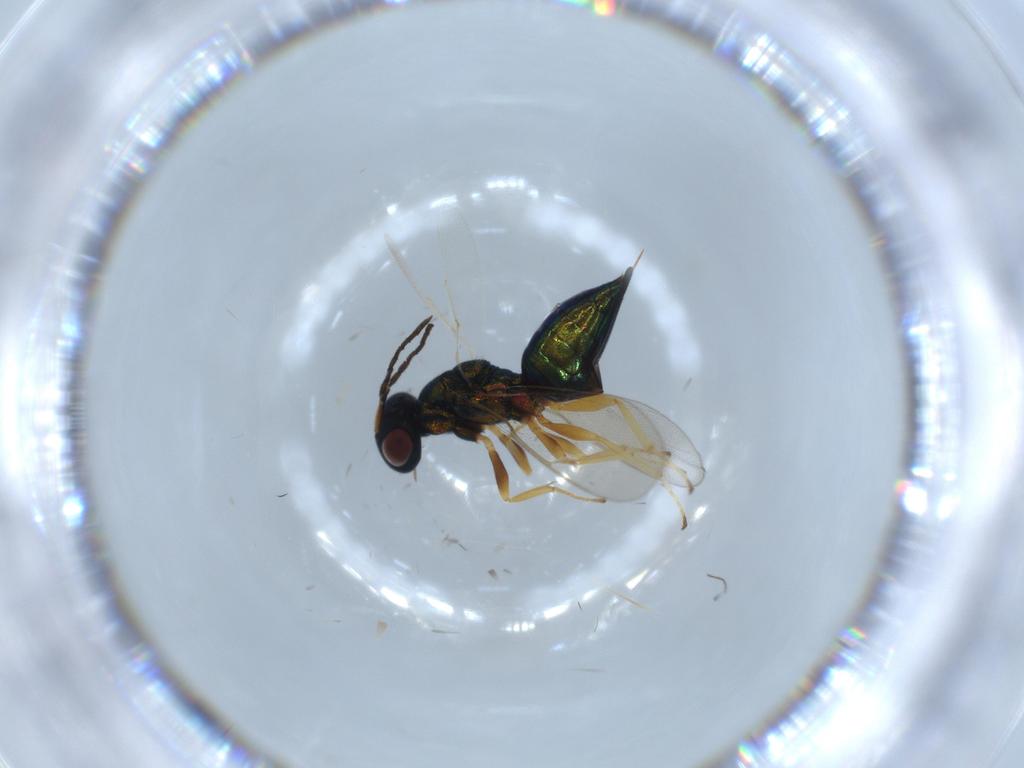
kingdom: Animalia
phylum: Arthropoda
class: Insecta
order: Hymenoptera
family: Pteromalidae
